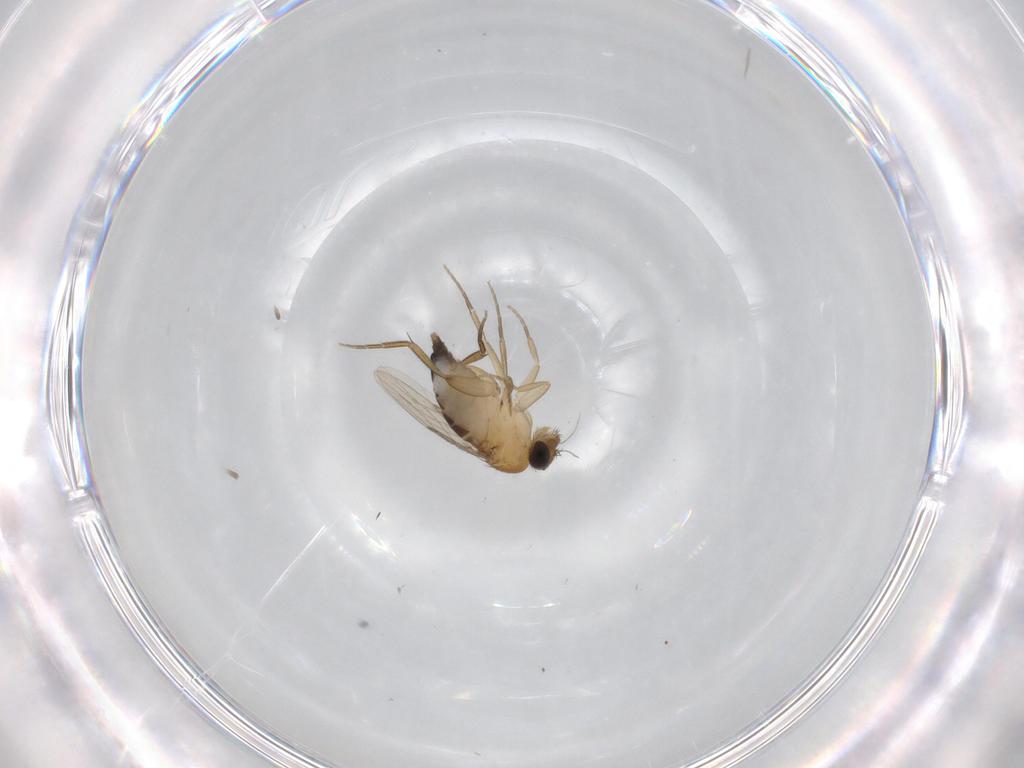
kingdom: Animalia
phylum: Arthropoda
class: Insecta
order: Diptera
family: Phoridae
